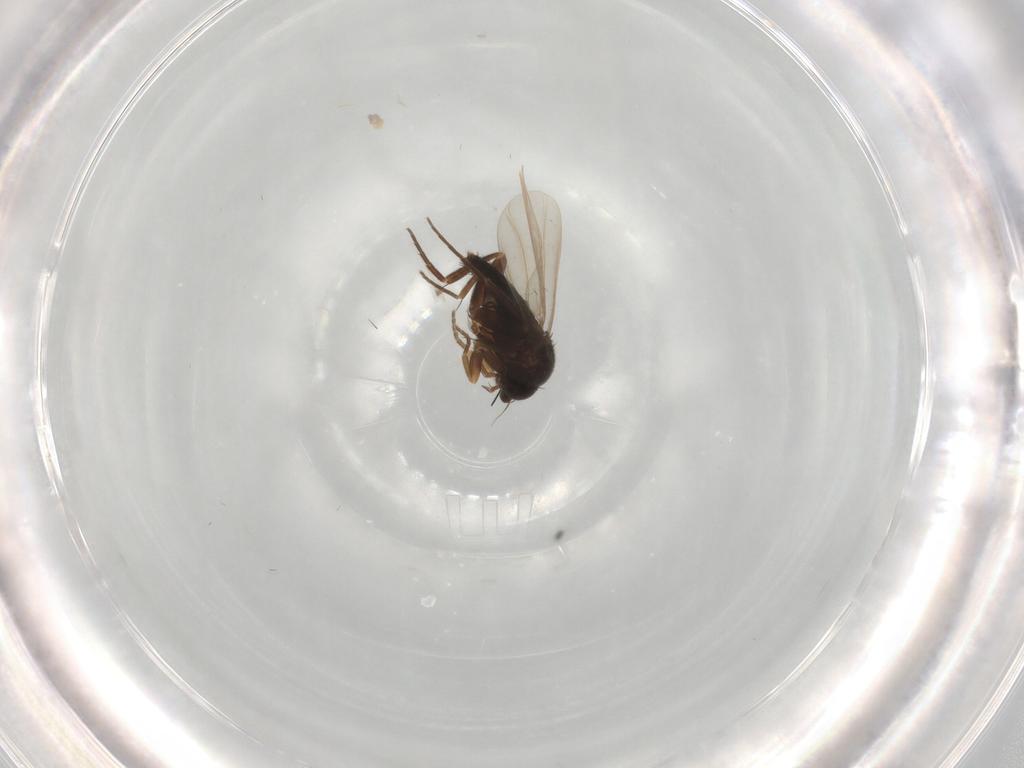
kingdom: Animalia
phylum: Arthropoda
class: Insecta
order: Diptera
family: Phoridae
